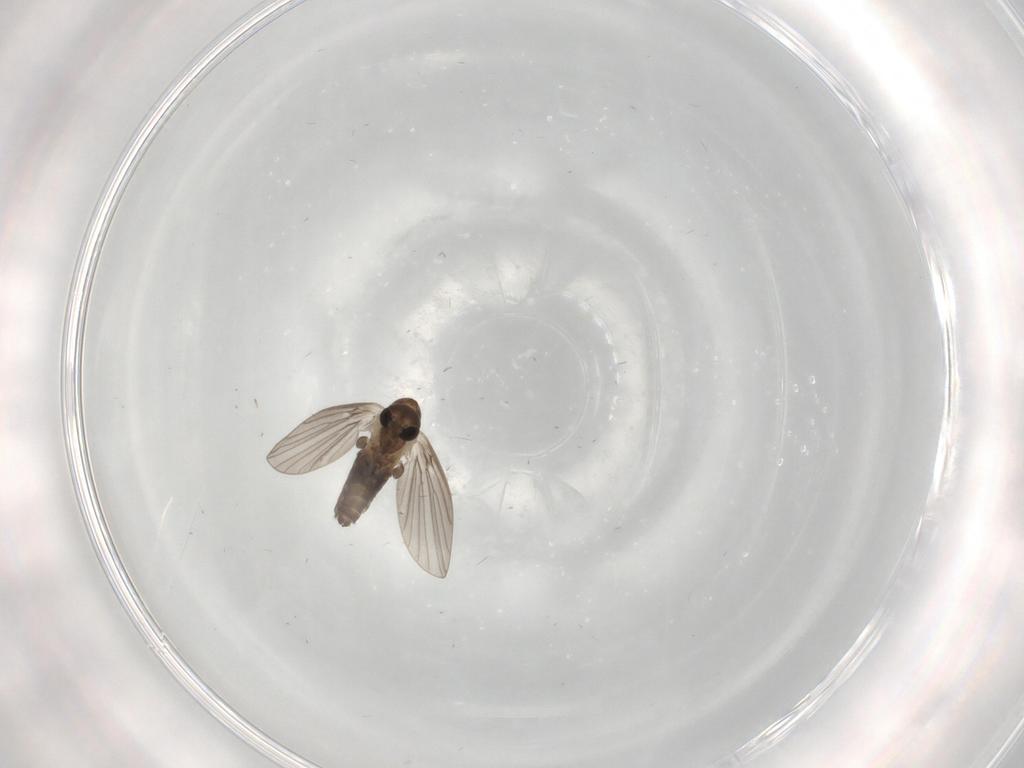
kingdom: Animalia
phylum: Arthropoda
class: Insecta
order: Diptera
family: Psychodidae
